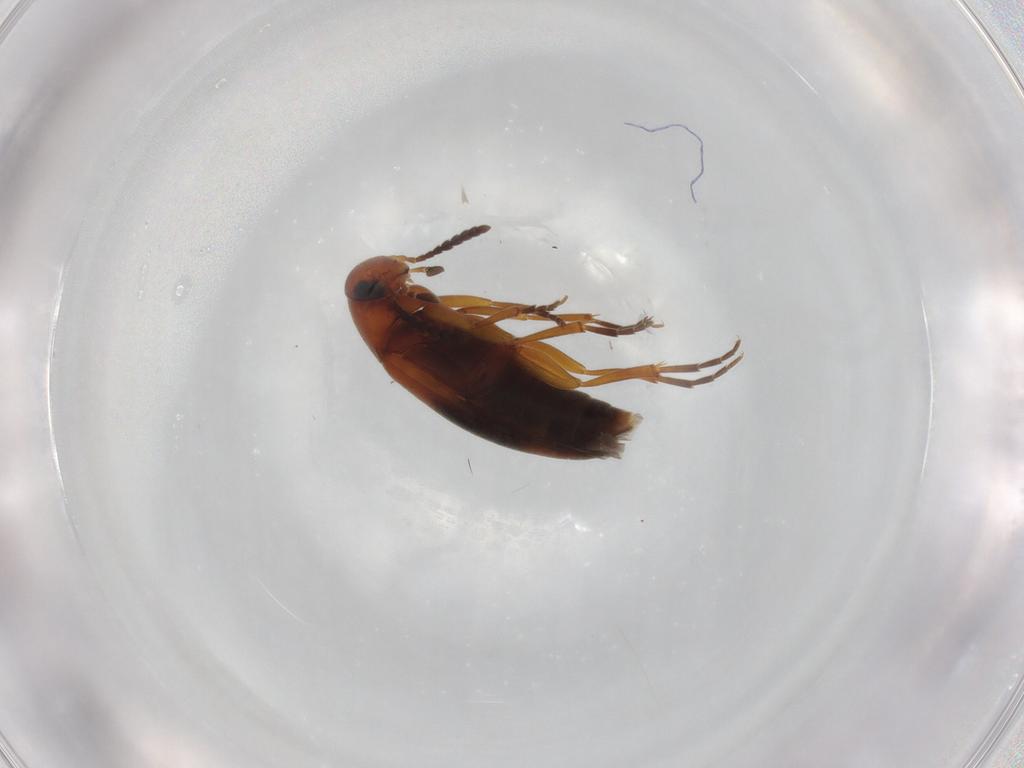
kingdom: Animalia
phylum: Arthropoda
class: Insecta
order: Coleoptera
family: Scraptiidae
